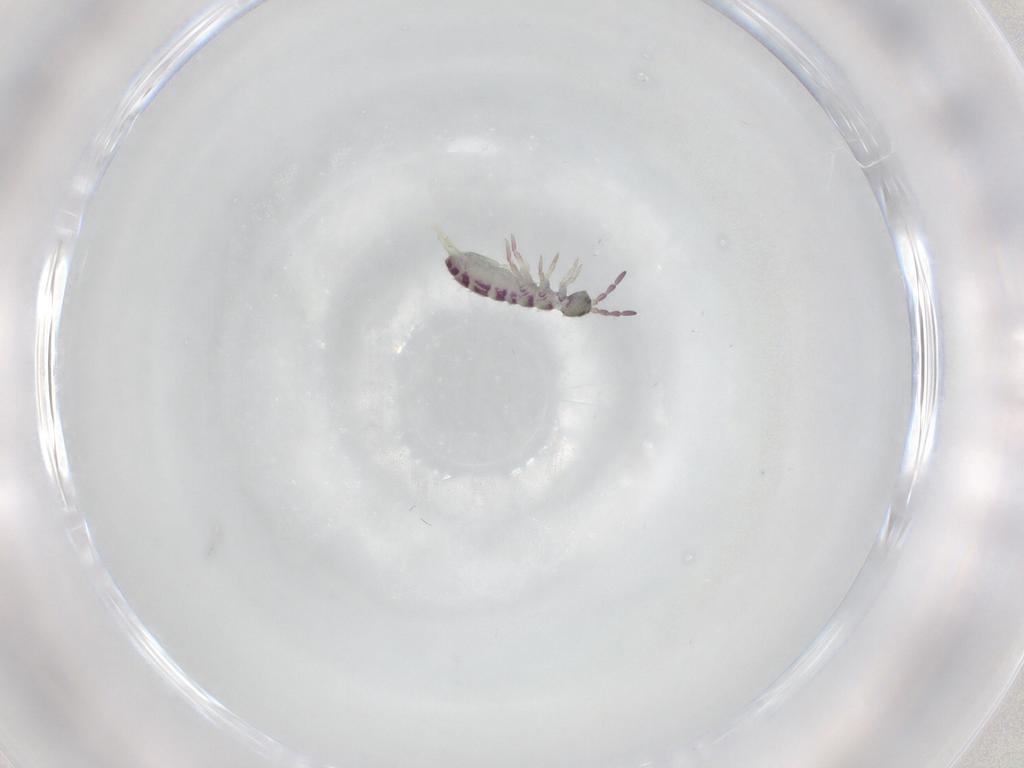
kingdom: Animalia
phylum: Arthropoda
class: Collembola
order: Entomobryomorpha
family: Isotomidae
